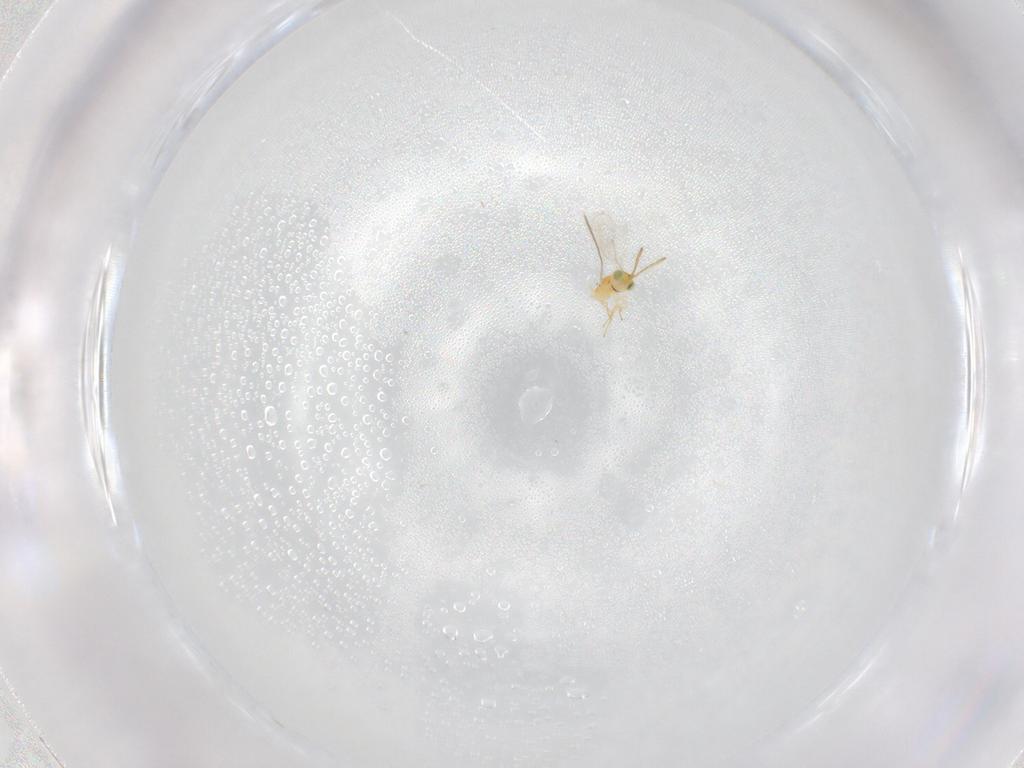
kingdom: Animalia
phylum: Arthropoda
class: Insecta
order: Hymenoptera
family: Aphelinidae
